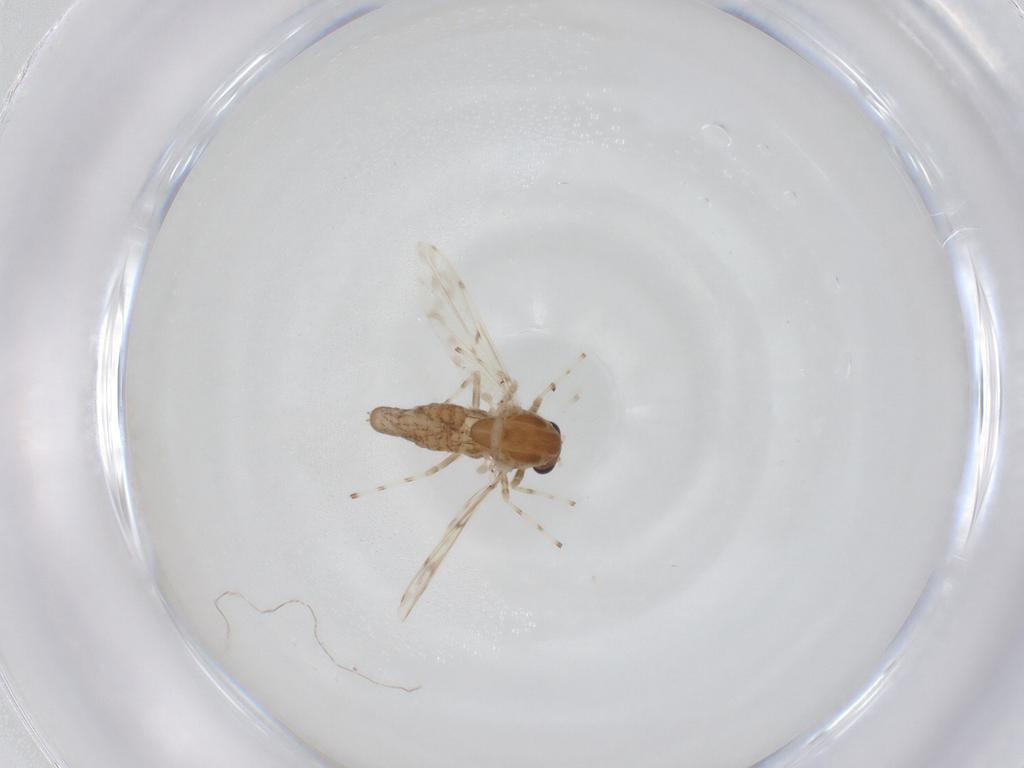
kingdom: Animalia
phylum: Arthropoda
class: Insecta
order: Diptera
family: Chironomidae
